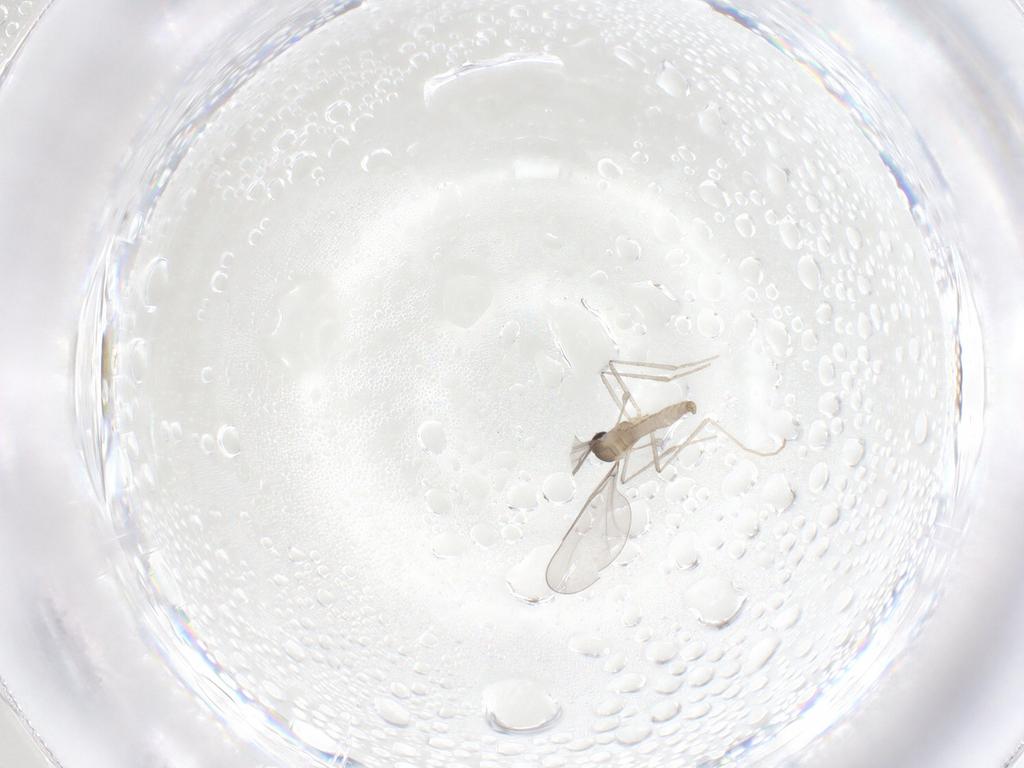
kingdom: Animalia
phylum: Arthropoda
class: Insecta
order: Diptera
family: Cecidomyiidae
